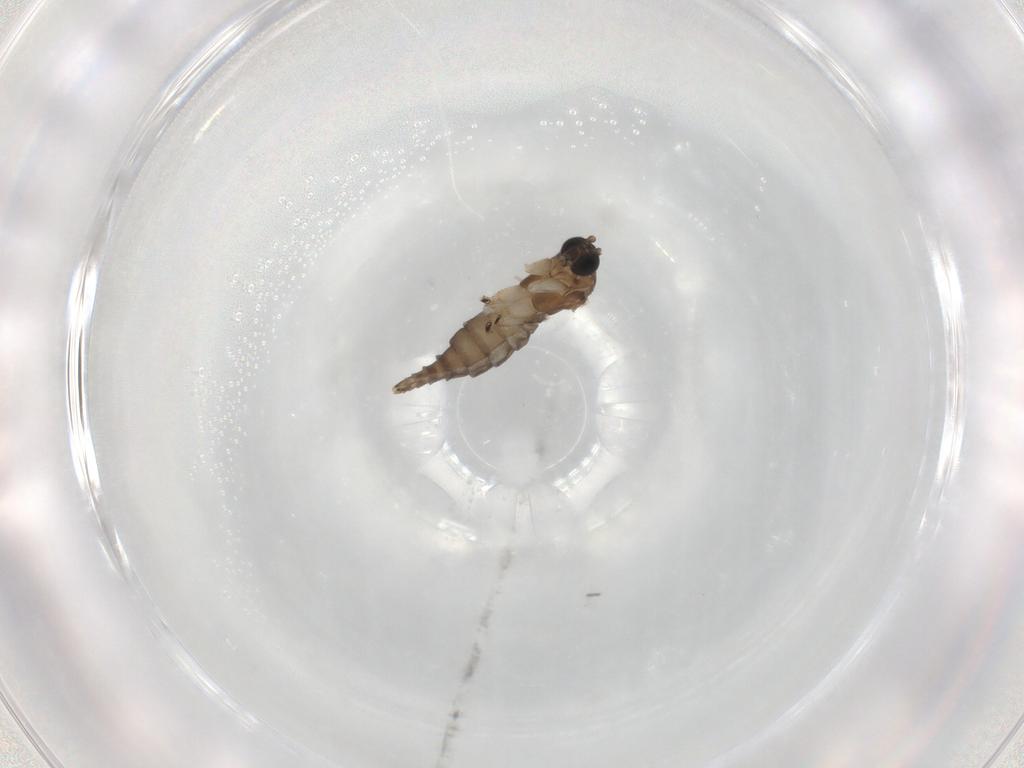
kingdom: Animalia
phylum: Arthropoda
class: Insecta
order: Diptera
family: Sciaridae
